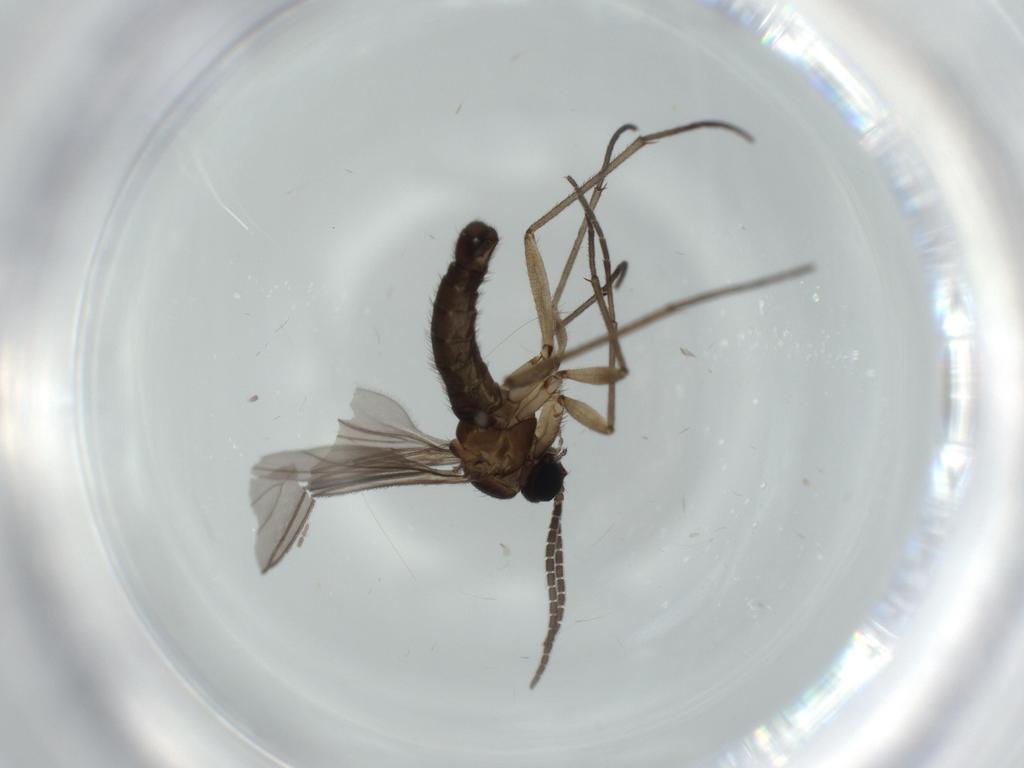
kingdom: Animalia
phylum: Arthropoda
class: Insecta
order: Diptera
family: Sciaridae
